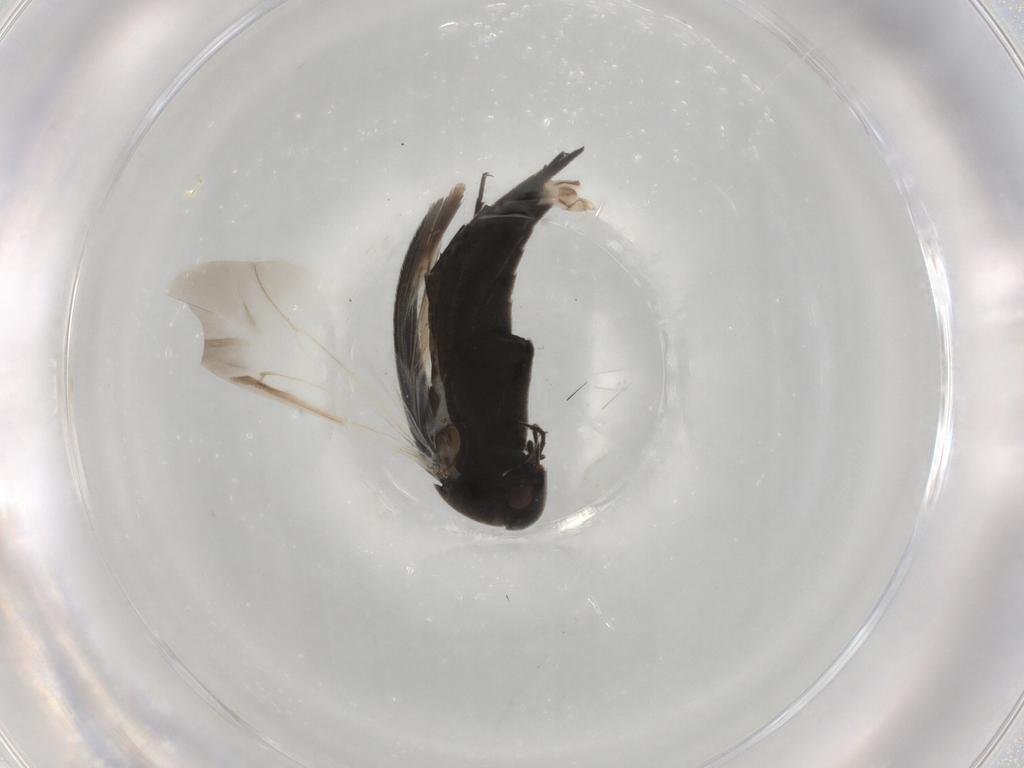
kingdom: Animalia
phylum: Arthropoda
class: Insecta
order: Coleoptera
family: Mordellidae
